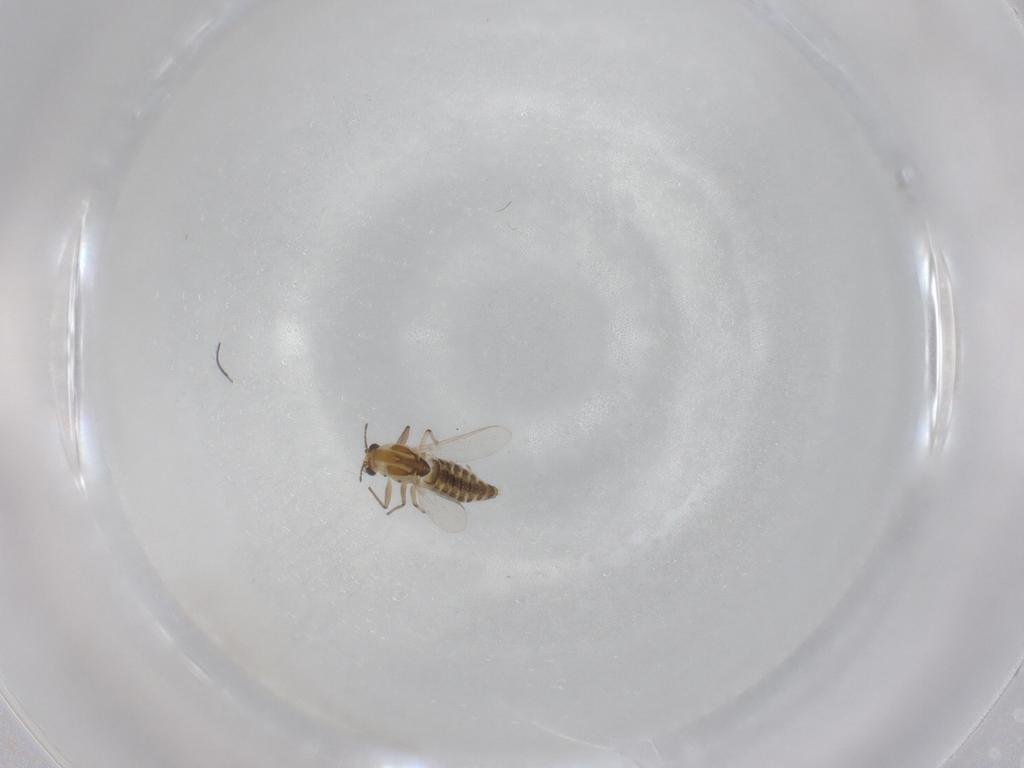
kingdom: Animalia
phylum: Arthropoda
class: Insecta
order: Diptera
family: Chironomidae
